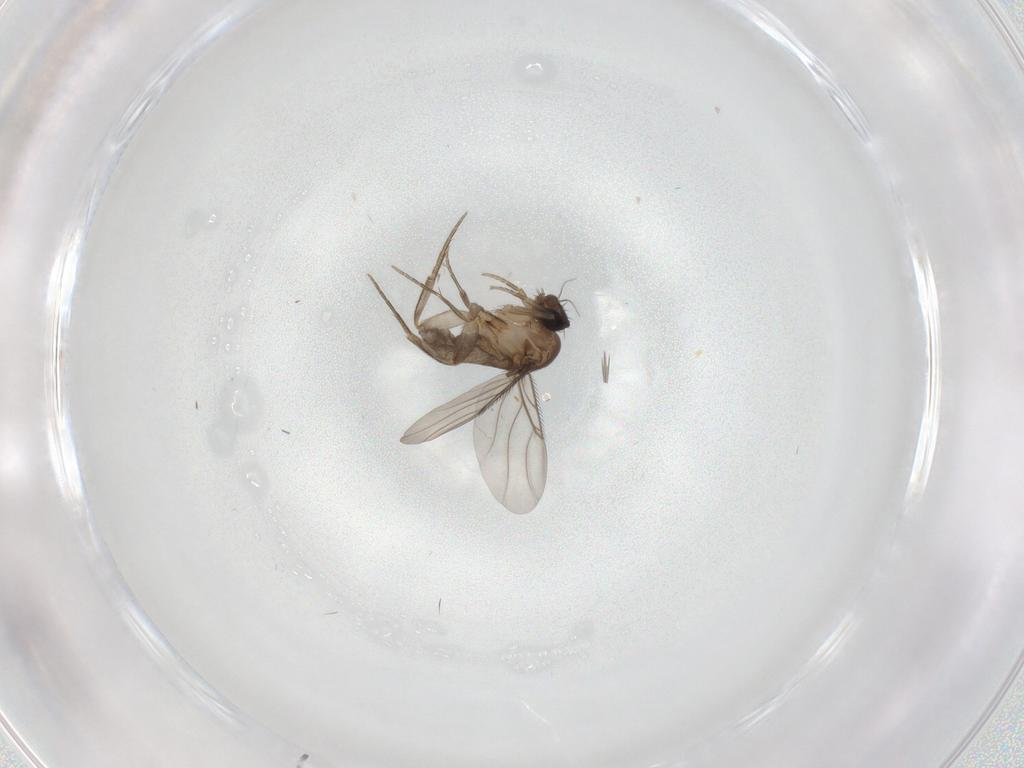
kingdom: Animalia
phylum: Arthropoda
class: Insecta
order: Diptera
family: Phoridae
